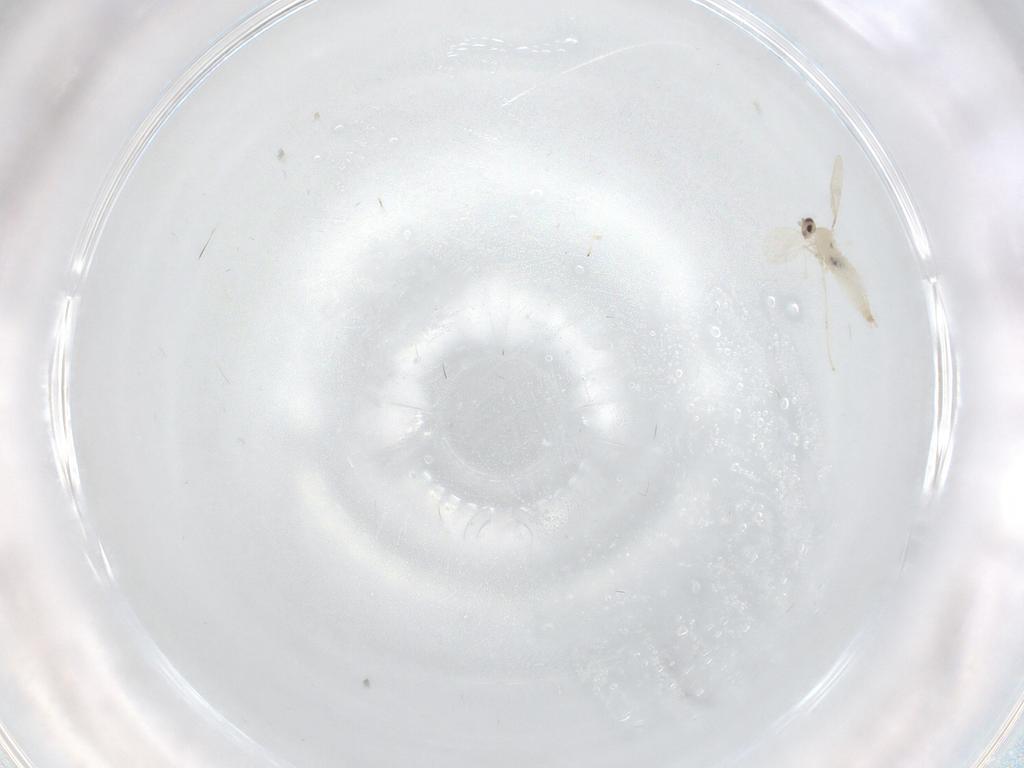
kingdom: Animalia
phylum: Arthropoda
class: Insecta
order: Diptera
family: Cecidomyiidae
